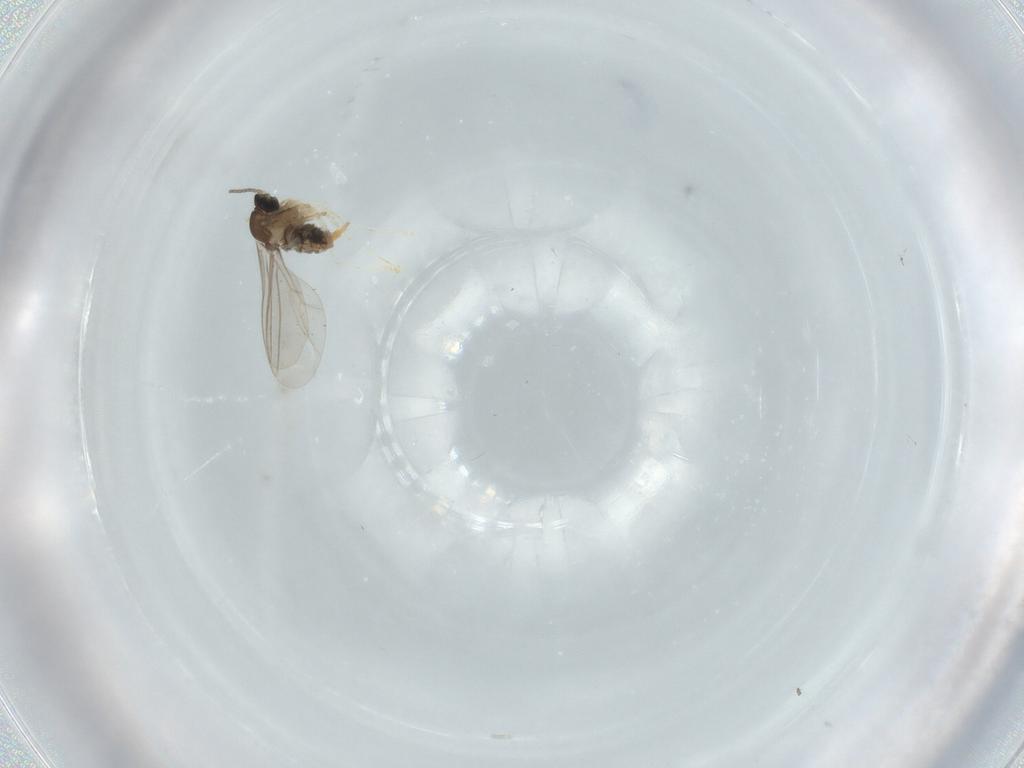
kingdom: Animalia
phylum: Arthropoda
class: Insecta
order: Diptera
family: Cecidomyiidae
